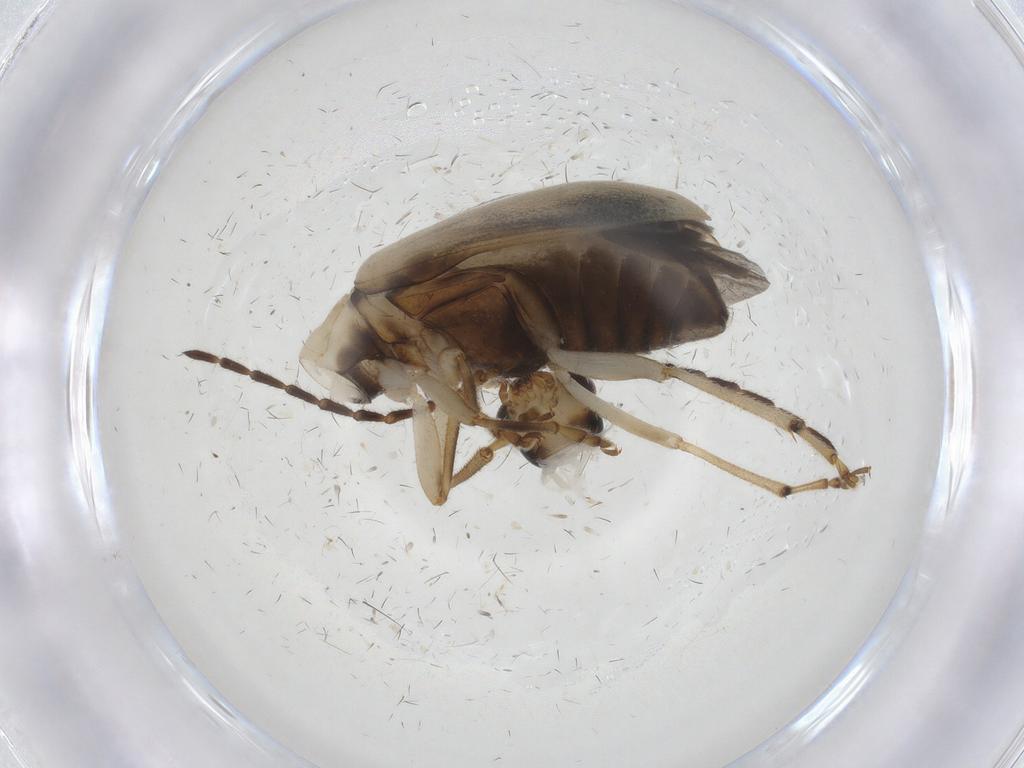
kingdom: Animalia
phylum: Arthropoda
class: Insecta
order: Coleoptera
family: Chrysomelidae
